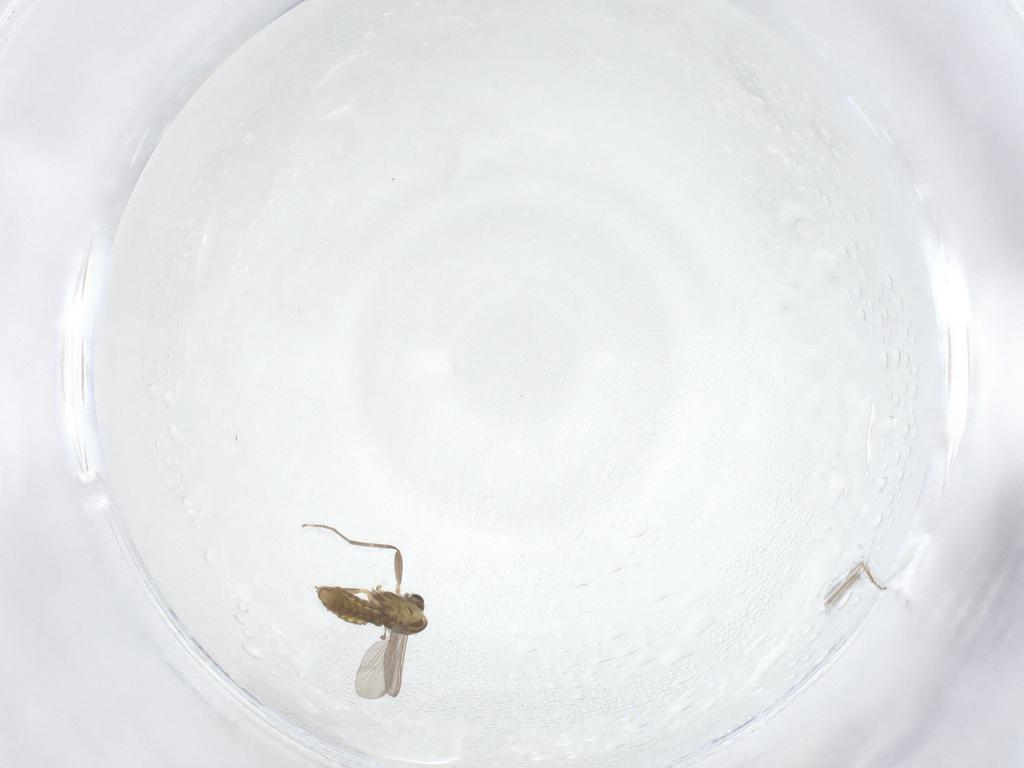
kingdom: Animalia
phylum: Arthropoda
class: Insecta
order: Diptera
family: Chironomidae
